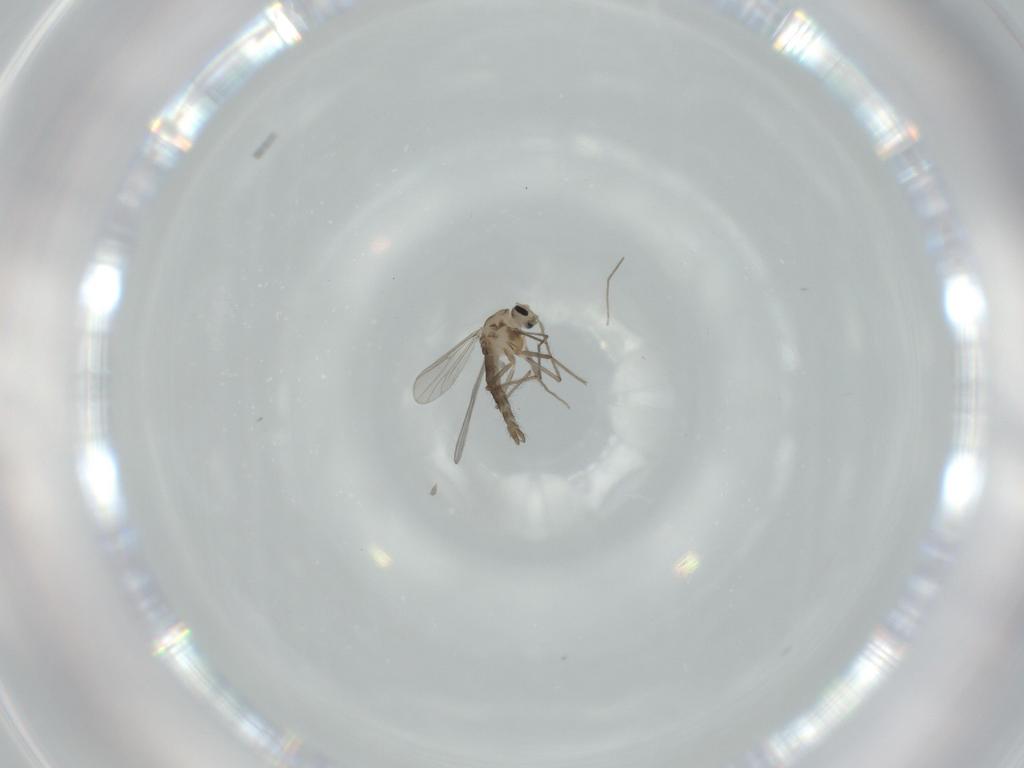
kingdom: Animalia
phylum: Arthropoda
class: Insecta
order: Diptera
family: Chironomidae
